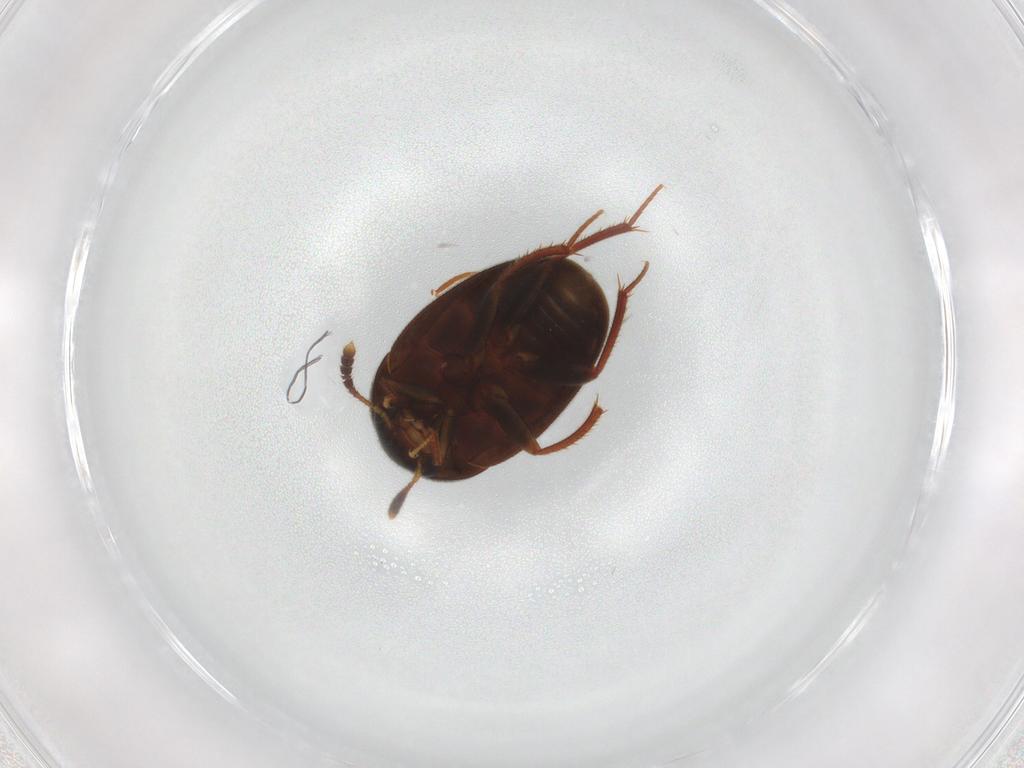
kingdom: Animalia
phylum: Arthropoda
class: Insecta
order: Coleoptera
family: Leiodidae
